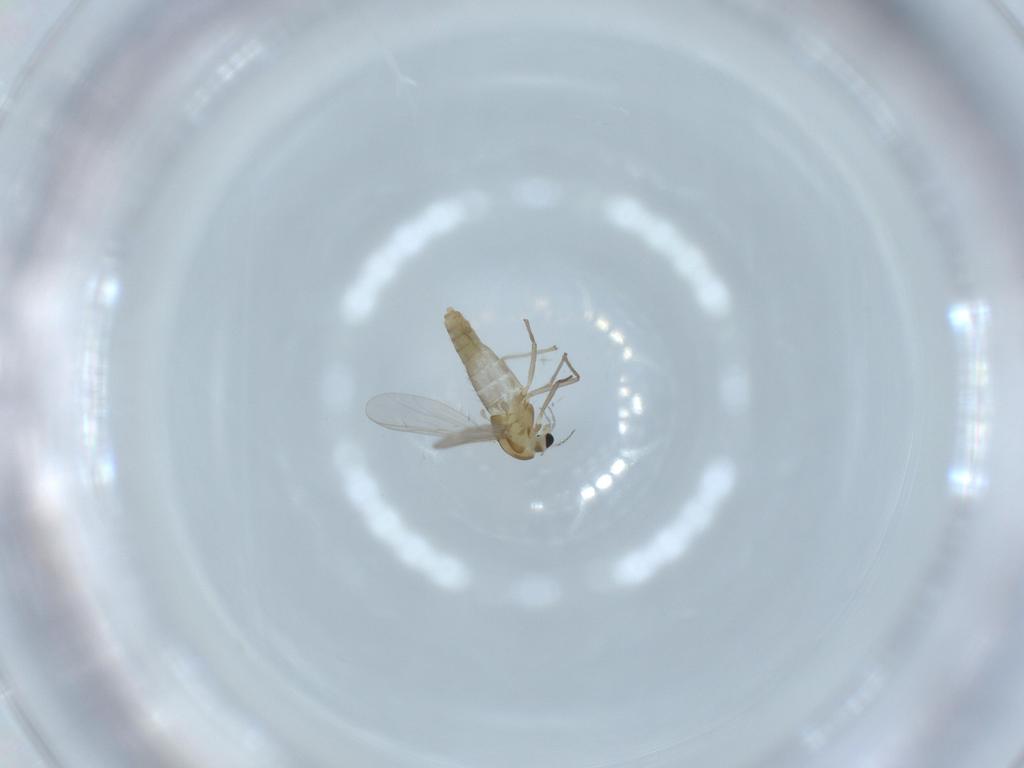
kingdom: Animalia
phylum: Arthropoda
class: Insecta
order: Diptera
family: Chironomidae
